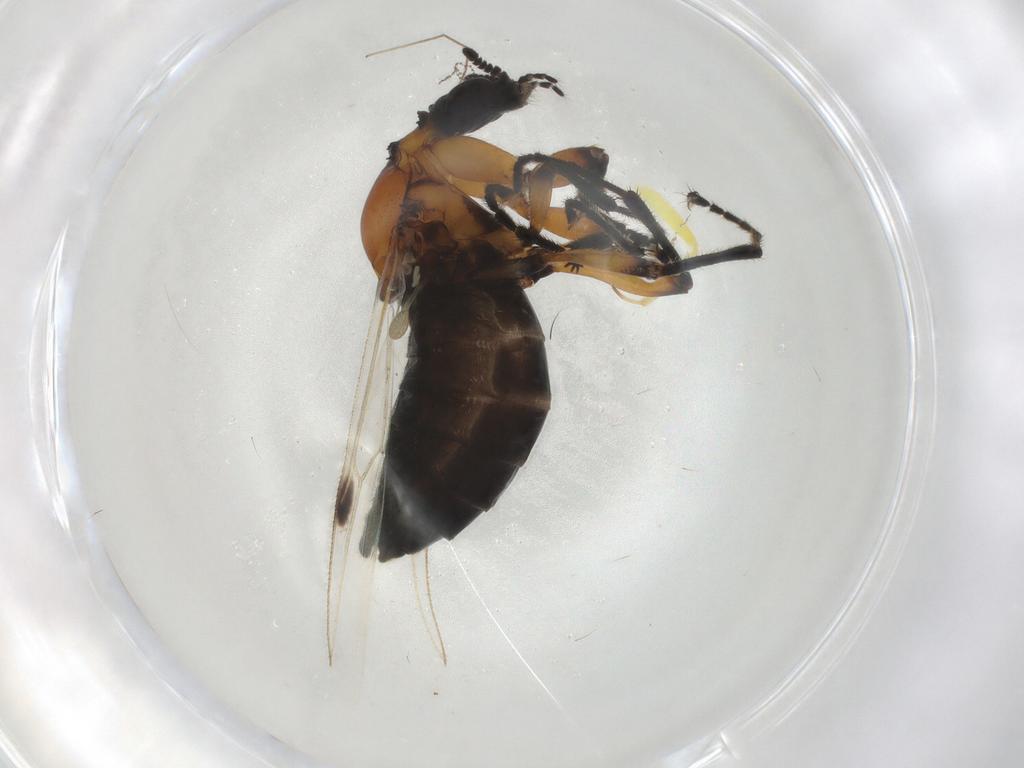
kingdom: Animalia
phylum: Arthropoda
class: Insecta
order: Diptera
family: Bibionidae
